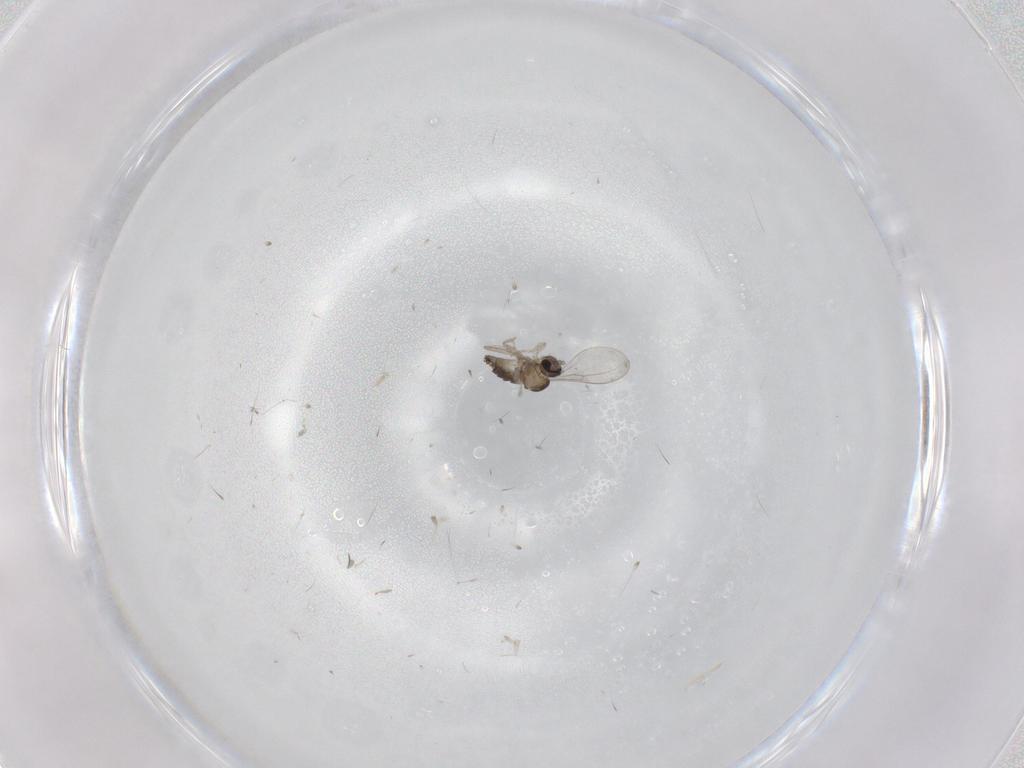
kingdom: Animalia
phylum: Arthropoda
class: Insecta
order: Diptera
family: Cecidomyiidae
